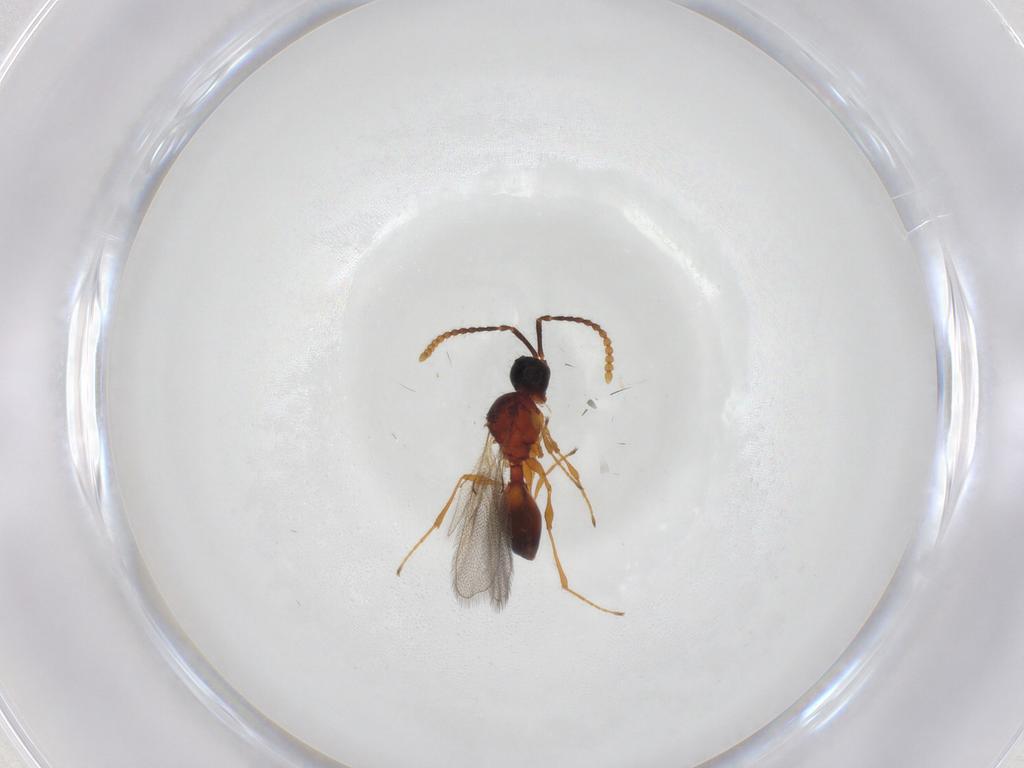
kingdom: Animalia
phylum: Arthropoda
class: Insecta
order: Hymenoptera
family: Diapriidae
